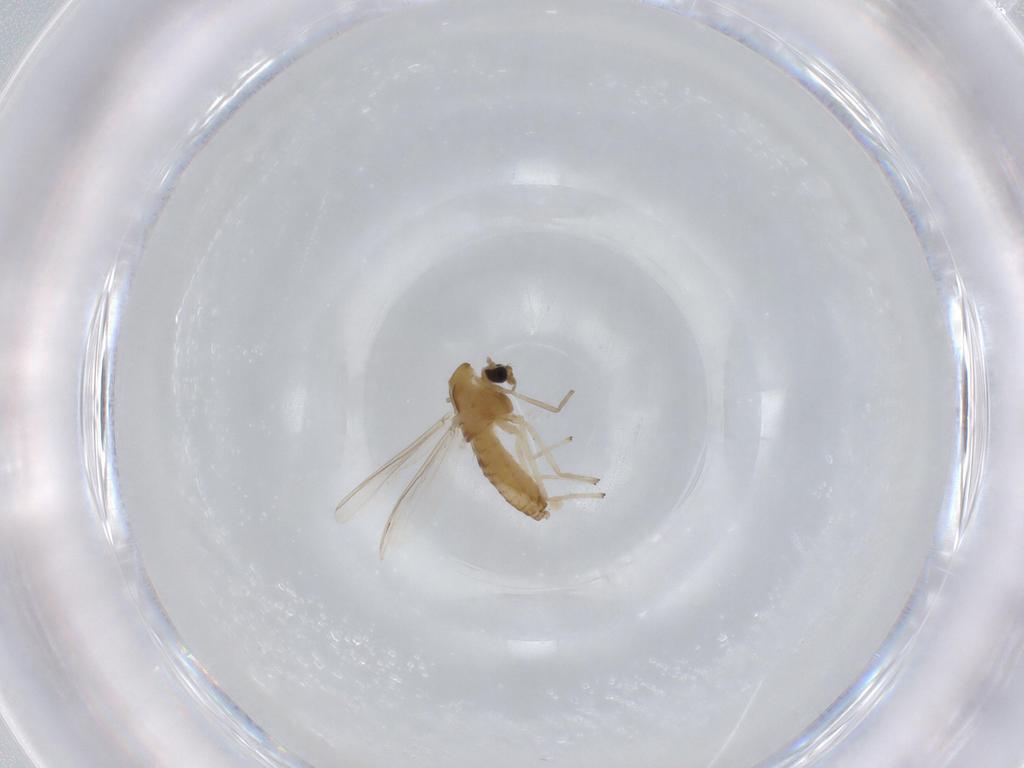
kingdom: Animalia
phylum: Arthropoda
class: Insecta
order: Diptera
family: Chironomidae
